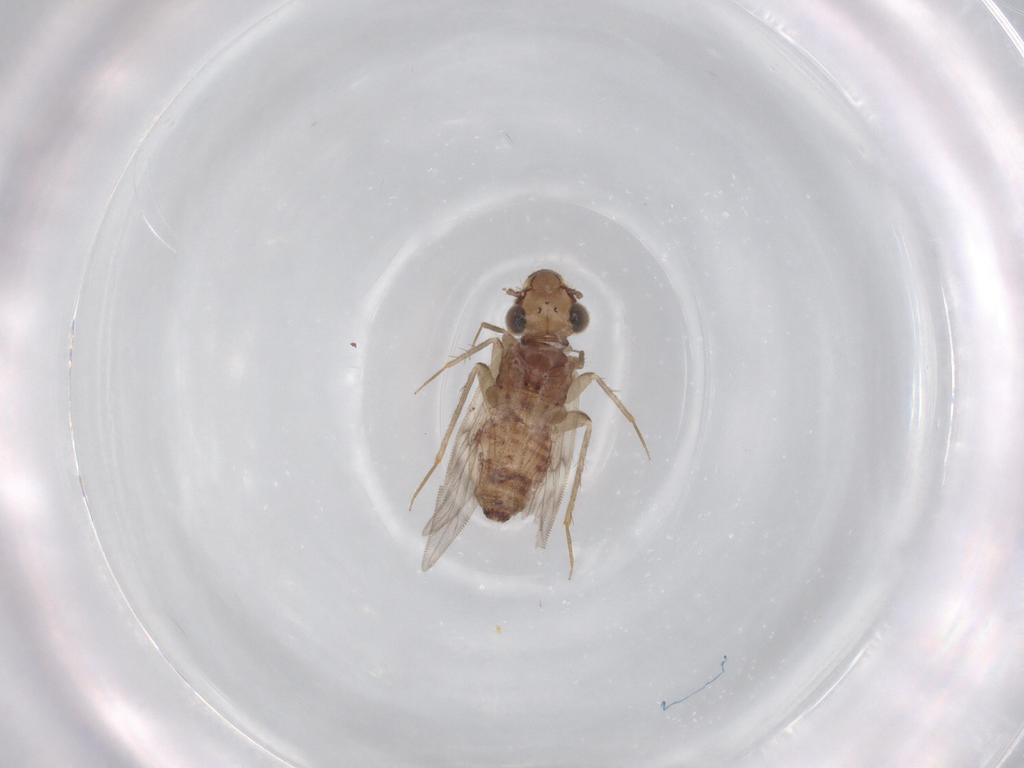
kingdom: Animalia
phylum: Arthropoda
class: Insecta
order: Psocodea
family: Lepidopsocidae
